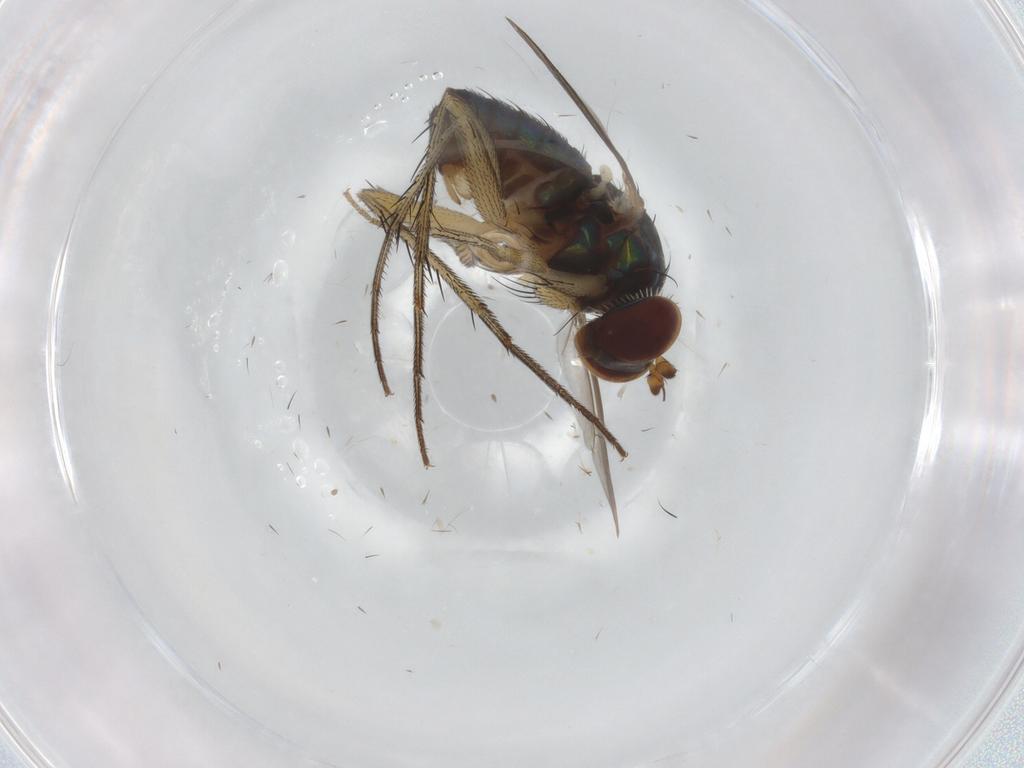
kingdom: Animalia
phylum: Arthropoda
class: Insecta
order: Diptera
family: Dolichopodidae
